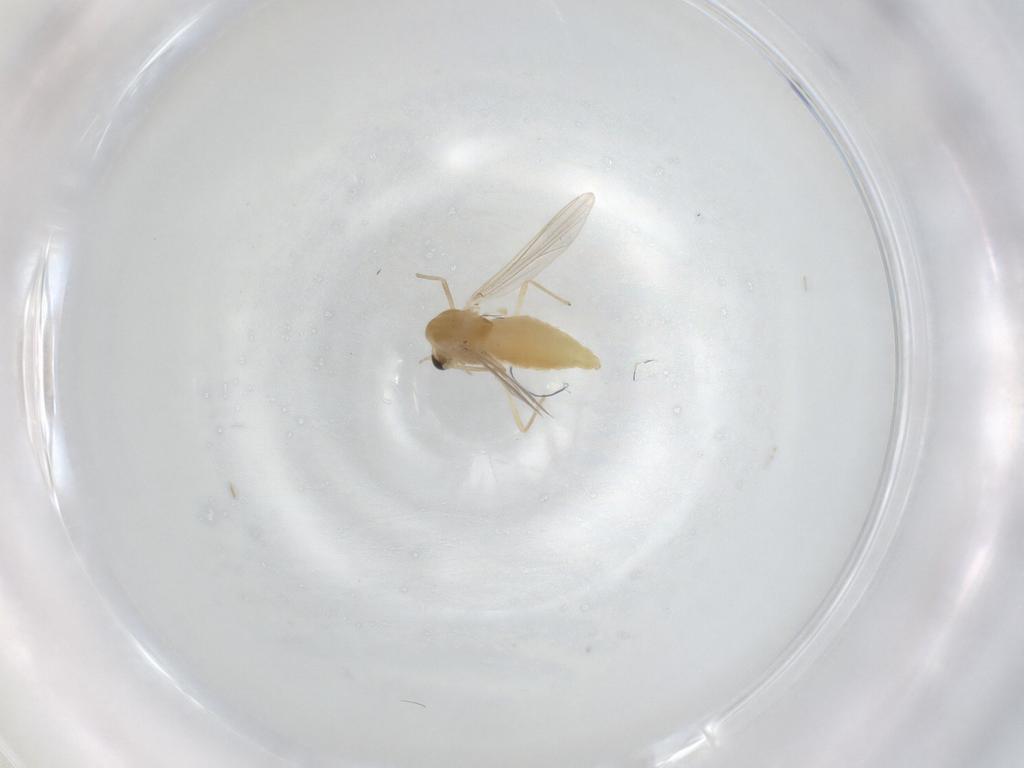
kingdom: Animalia
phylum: Arthropoda
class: Insecta
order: Diptera
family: Chironomidae
